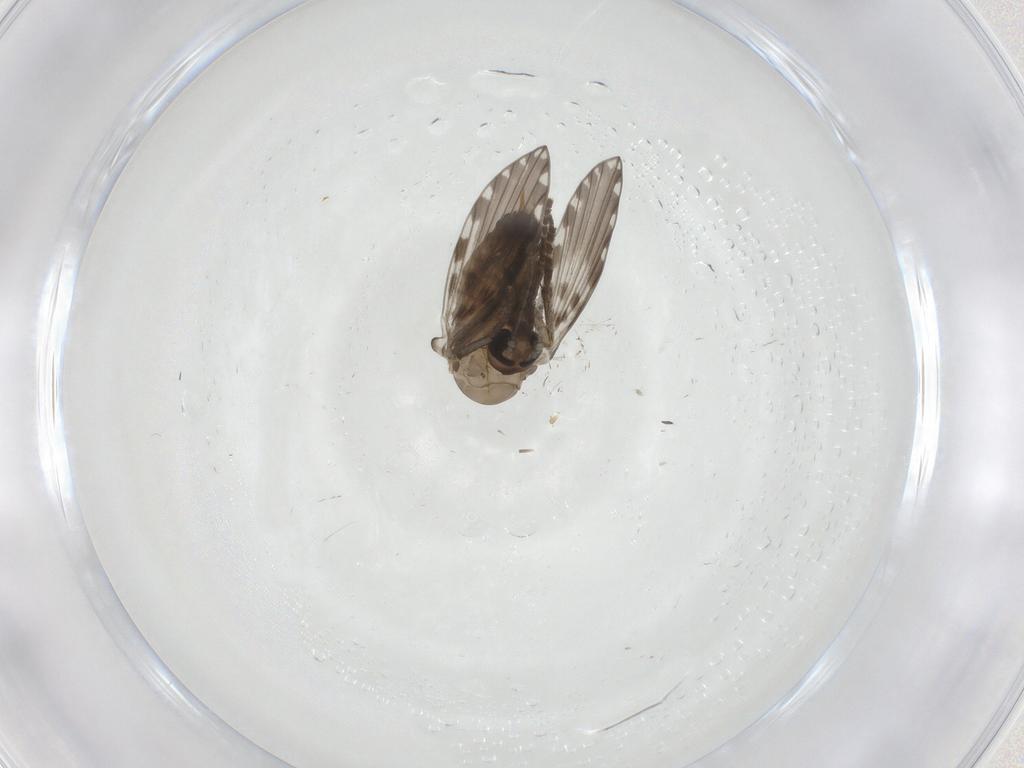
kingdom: Animalia
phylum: Arthropoda
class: Insecta
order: Diptera
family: Psychodidae
